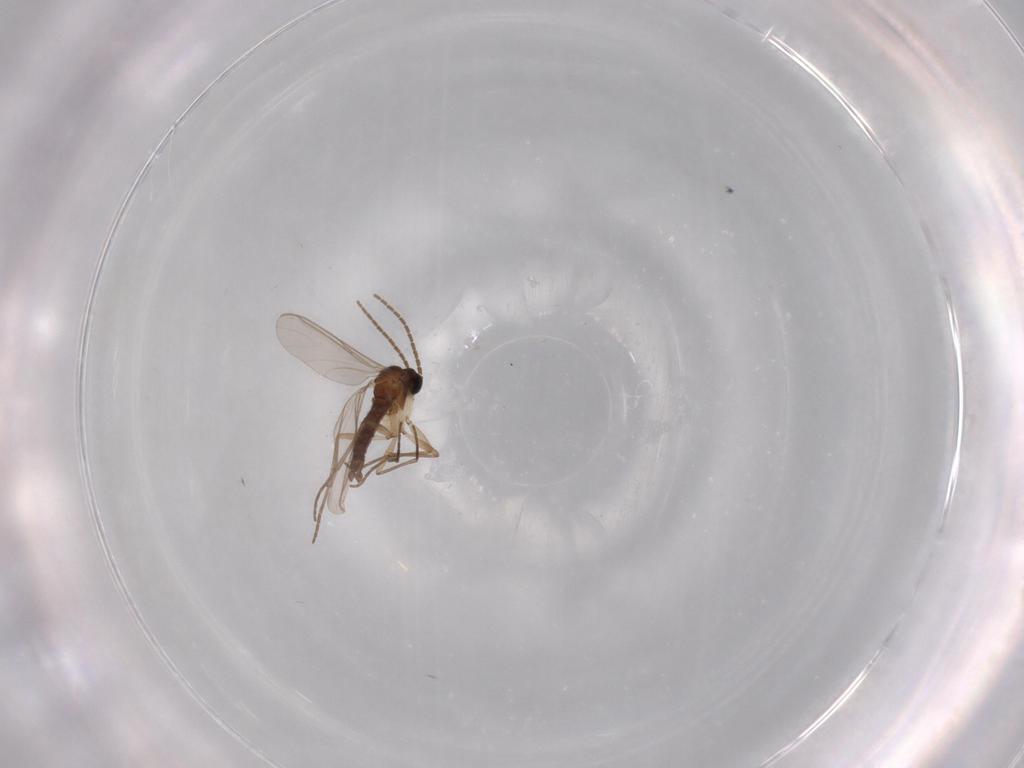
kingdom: Animalia
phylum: Arthropoda
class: Insecta
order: Diptera
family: Sciaridae
